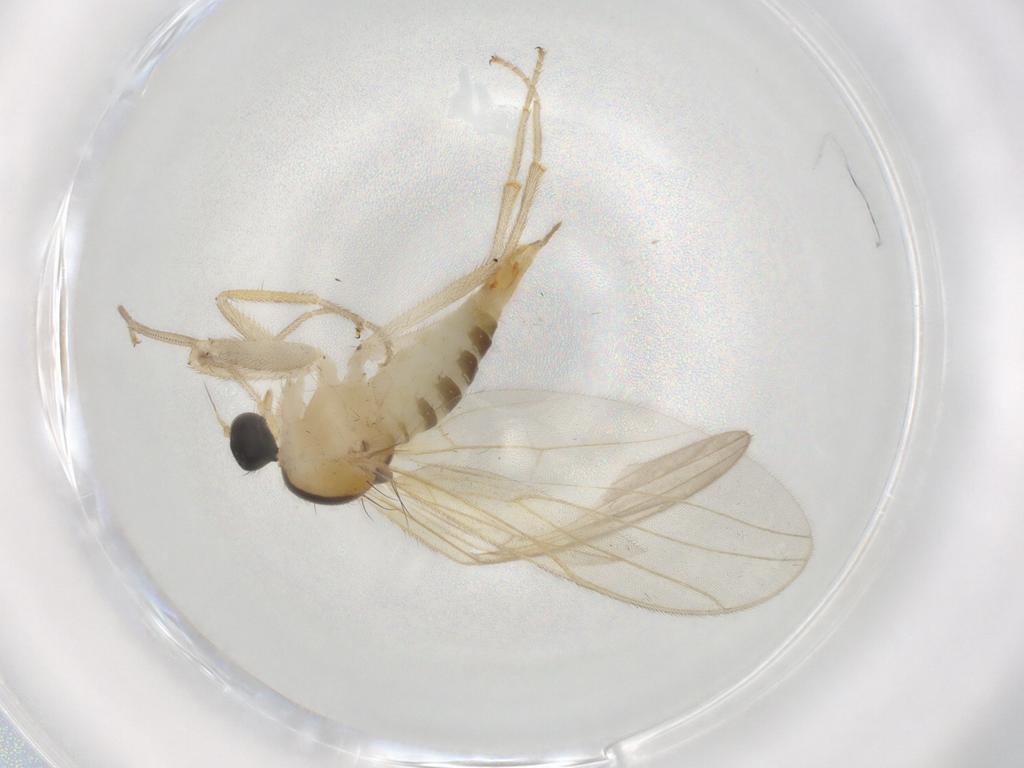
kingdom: Animalia
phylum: Arthropoda
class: Insecta
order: Diptera
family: Hybotidae
